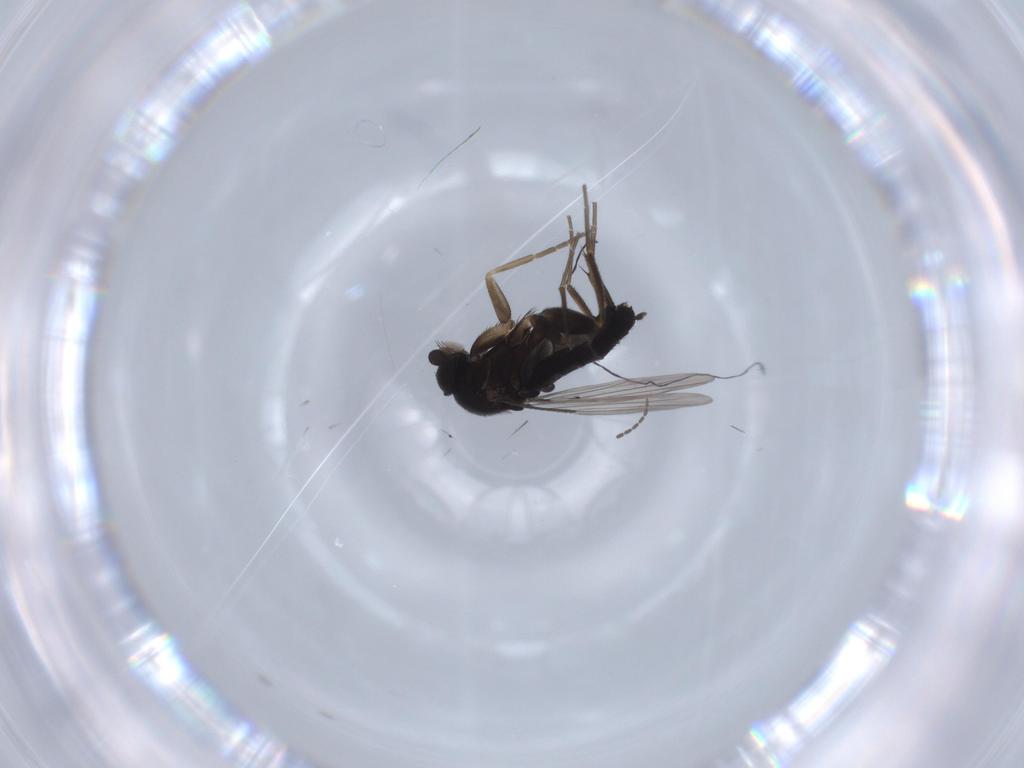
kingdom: Animalia
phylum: Arthropoda
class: Insecta
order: Diptera
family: Phoridae
